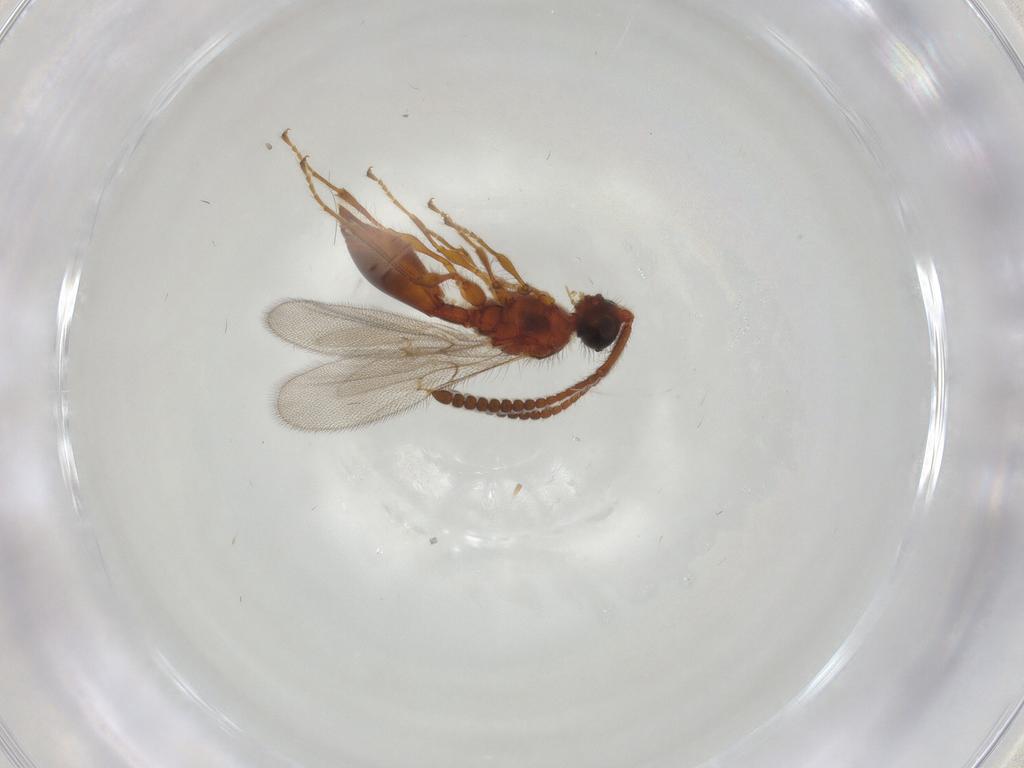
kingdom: Animalia
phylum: Arthropoda
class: Insecta
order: Hymenoptera
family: Diapriidae
